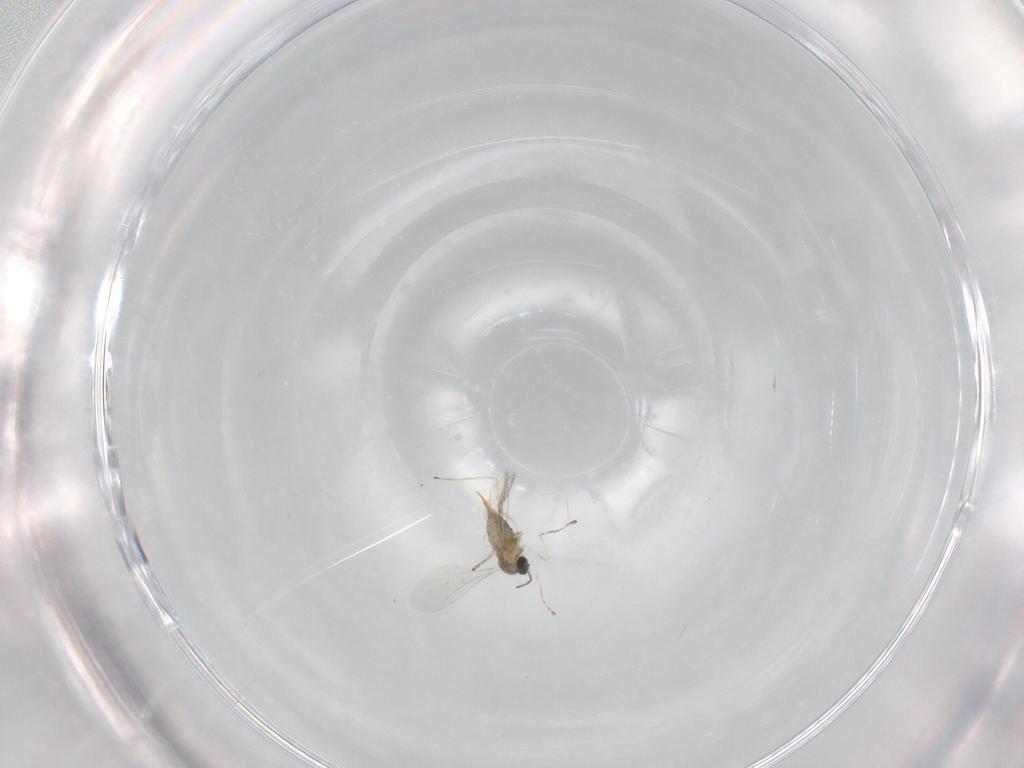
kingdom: Animalia
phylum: Arthropoda
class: Insecta
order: Diptera
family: Cecidomyiidae
